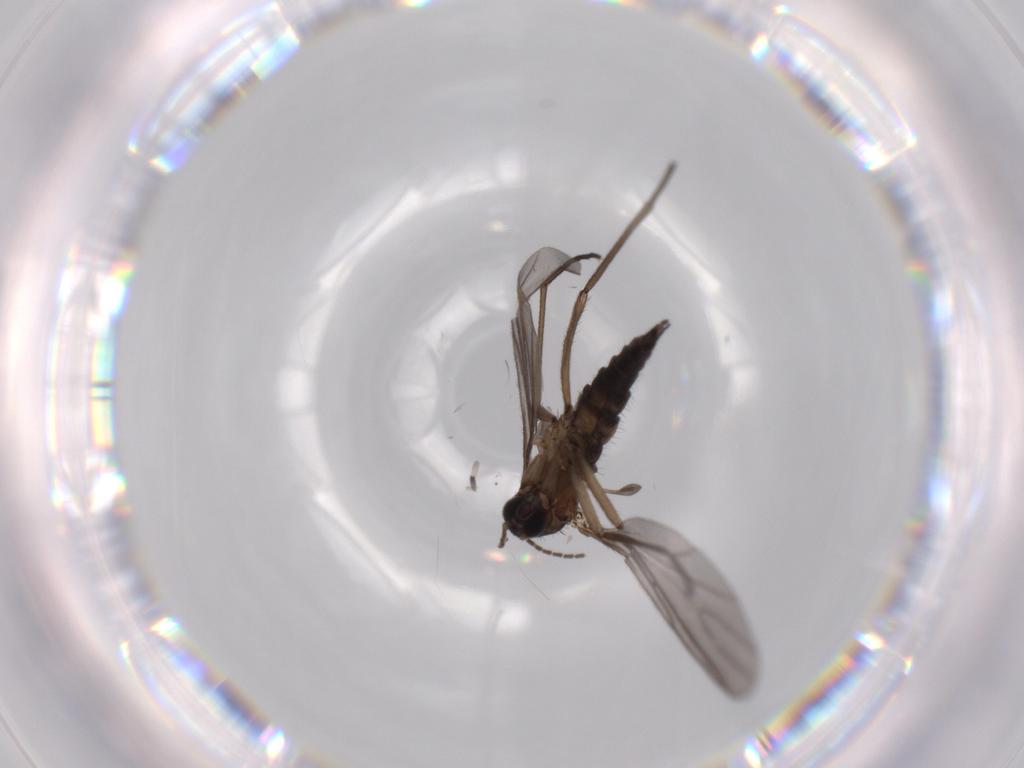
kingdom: Animalia
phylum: Arthropoda
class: Insecta
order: Diptera
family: Sciaridae
